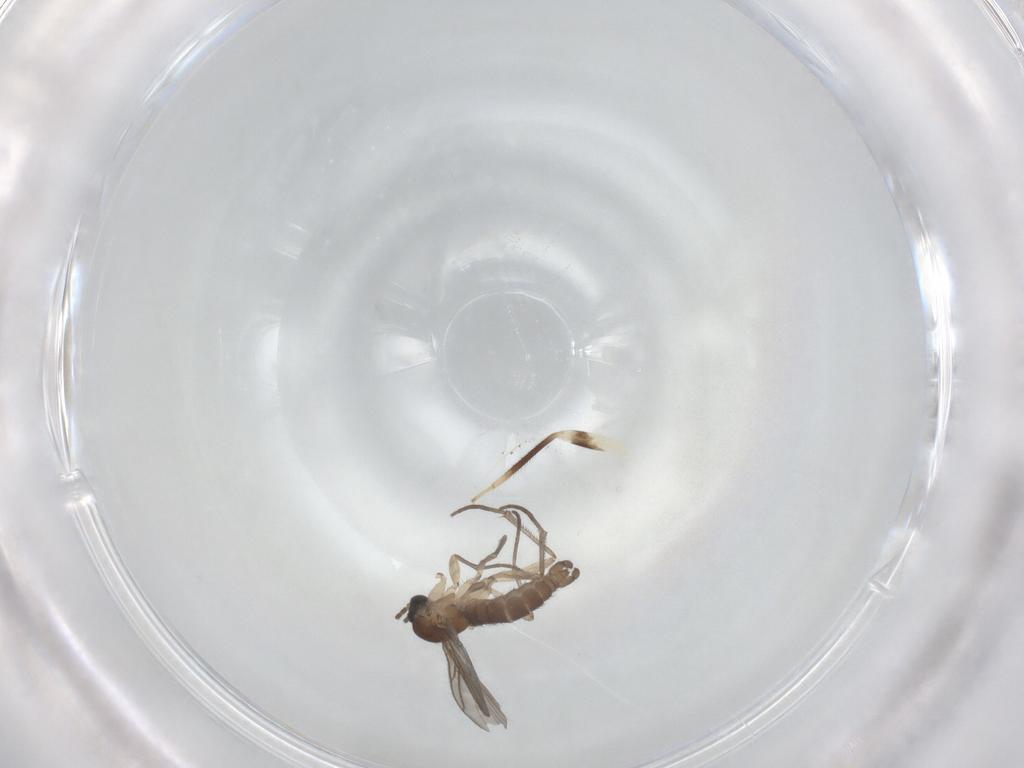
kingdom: Animalia
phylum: Arthropoda
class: Insecta
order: Diptera
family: Sciaridae
